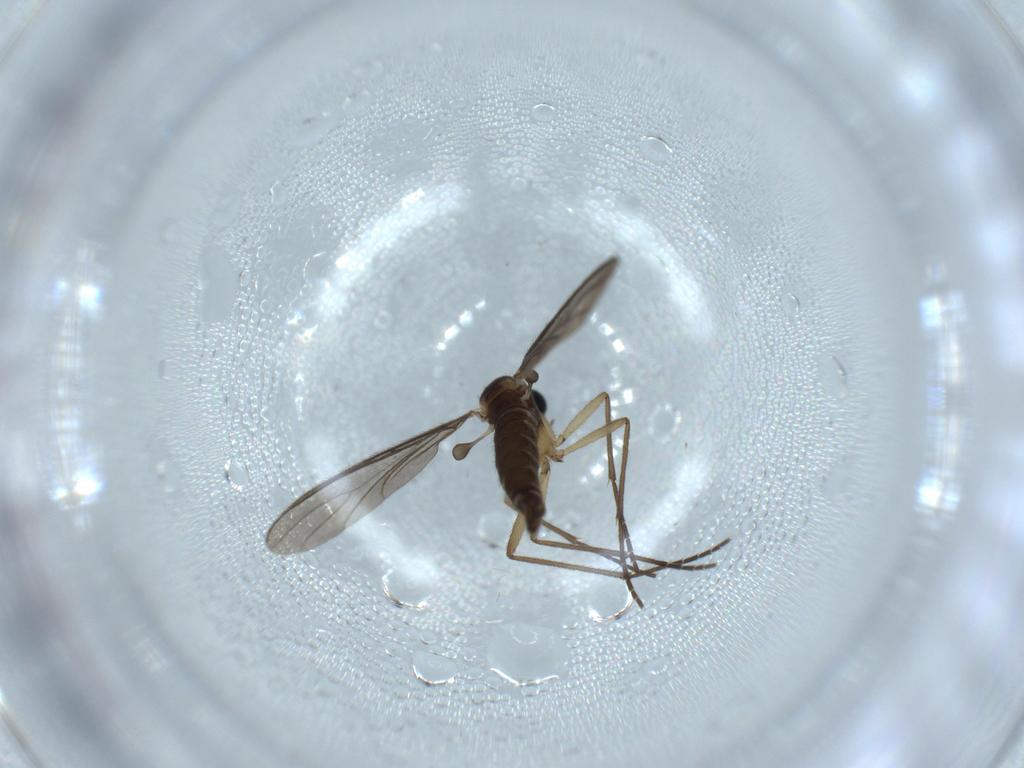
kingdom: Animalia
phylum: Arthropoda
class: Insecta
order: Diptera
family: Sciaridae
